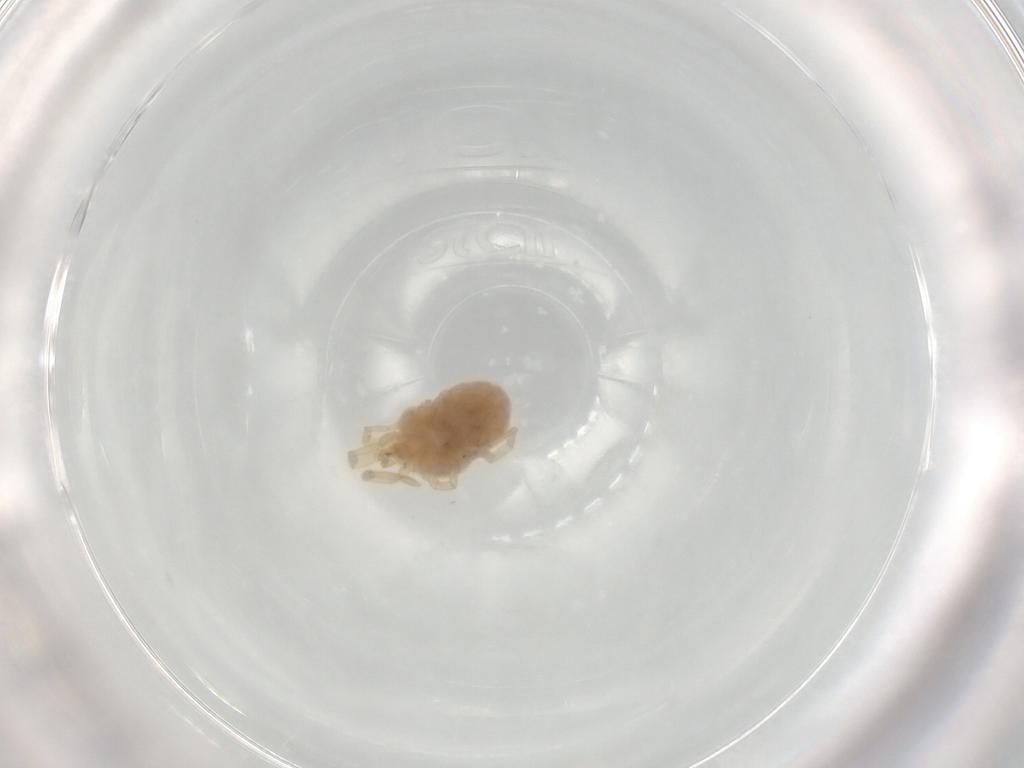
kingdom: Animalia
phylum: Arthropoda
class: Arachnida
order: Trombidiformes
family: Erythraeidae
